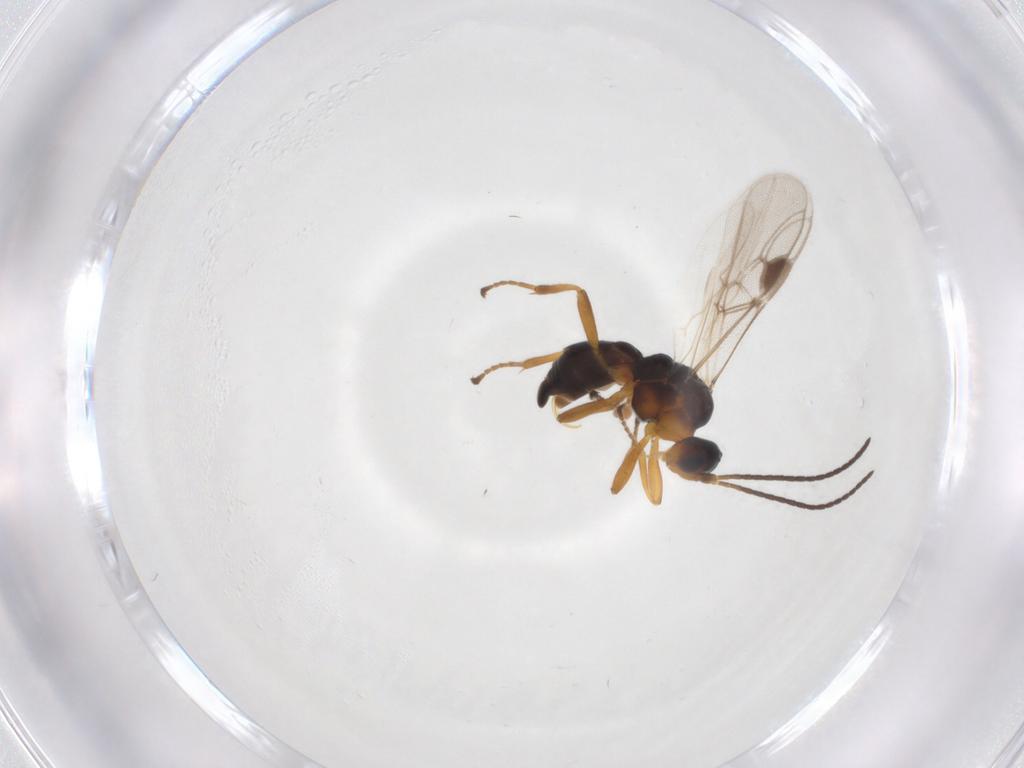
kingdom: Animalia
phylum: Arthropoda
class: Insecta
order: Hymenoptera
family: Braconidae
